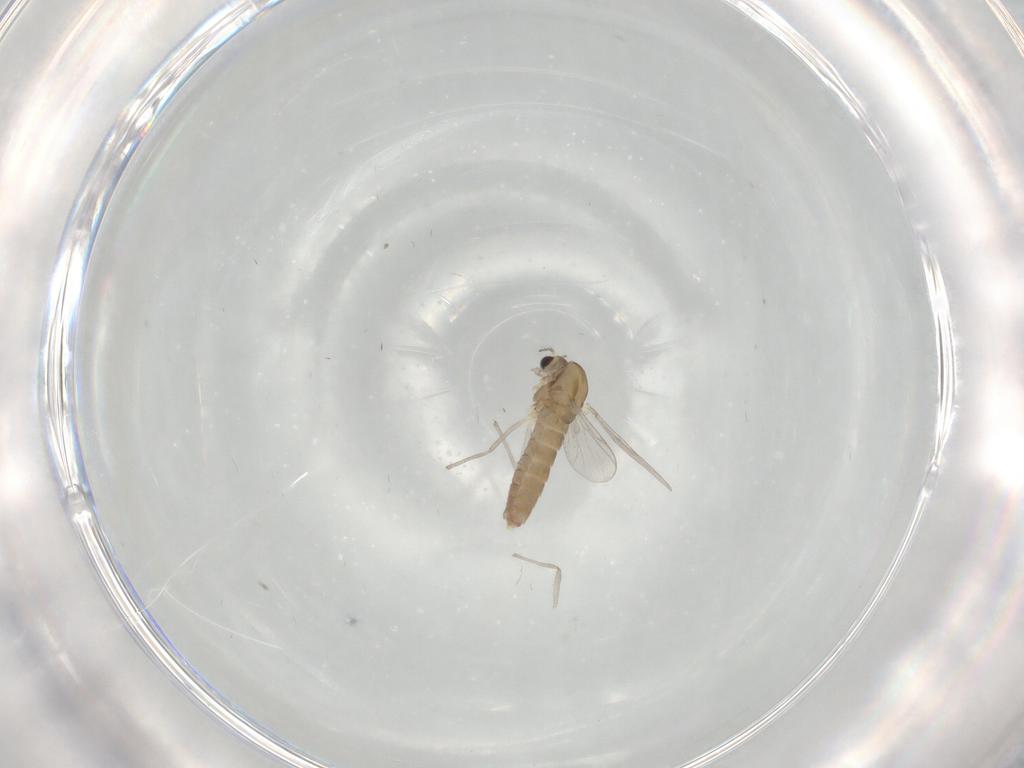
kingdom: Animalia
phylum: Arthropoda
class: Insecta
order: Diptera
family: Chironomidae
